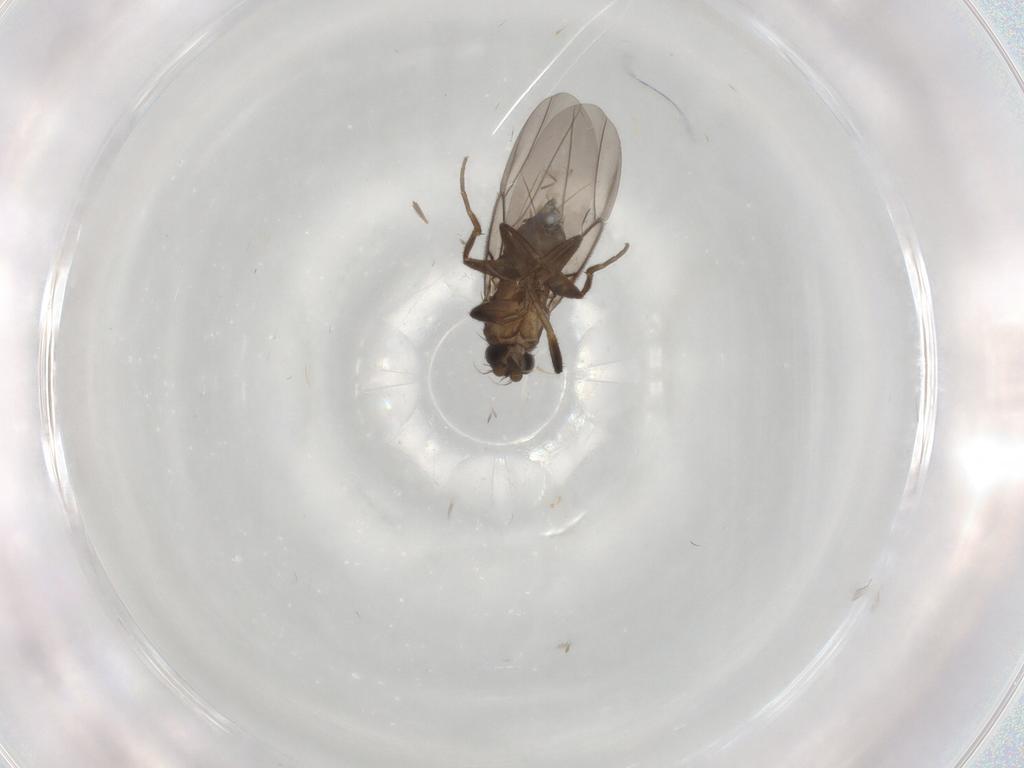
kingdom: Animalia
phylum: Arthropoda
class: Insecta
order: Diptera
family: Phoridae
